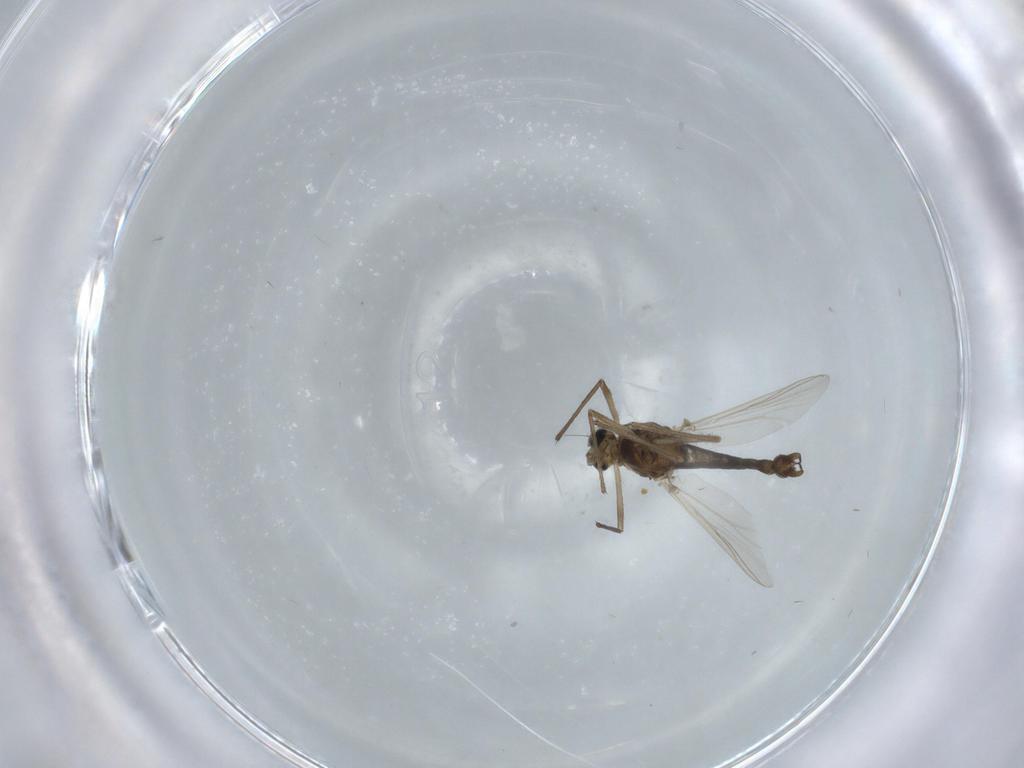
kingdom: Animalia
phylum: Arthropoda
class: Insecta
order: Diptera
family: Chironomidae
